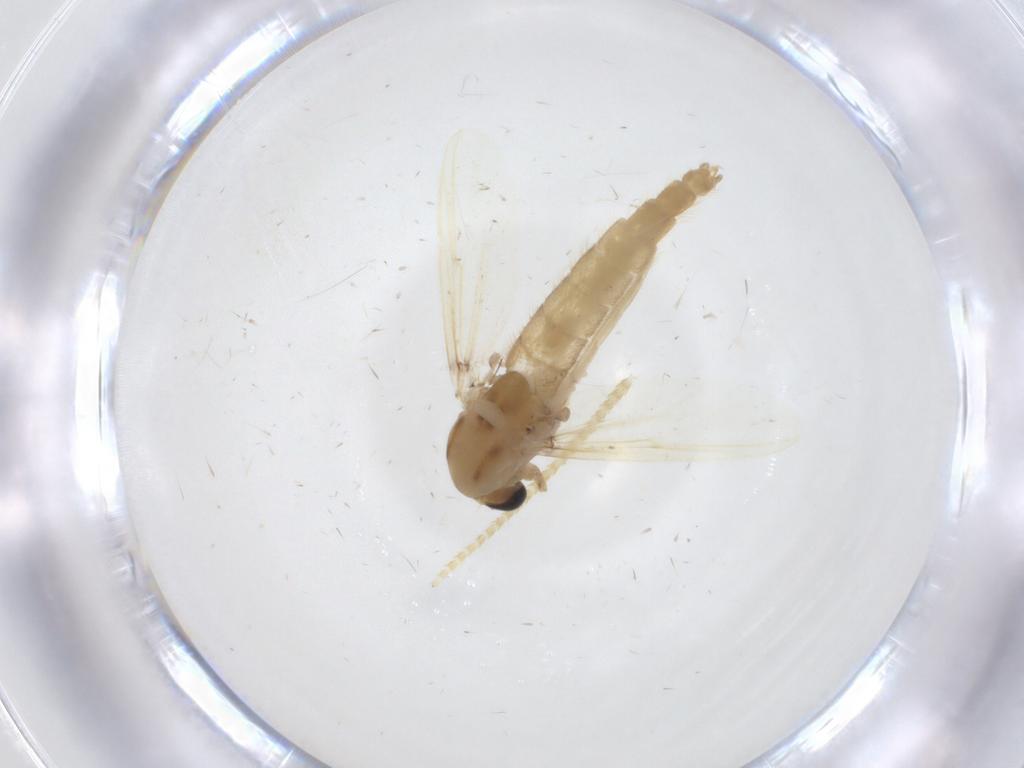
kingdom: Animalia
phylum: Arthropoda
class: Insecta
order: Diptera
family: Chironomidae
